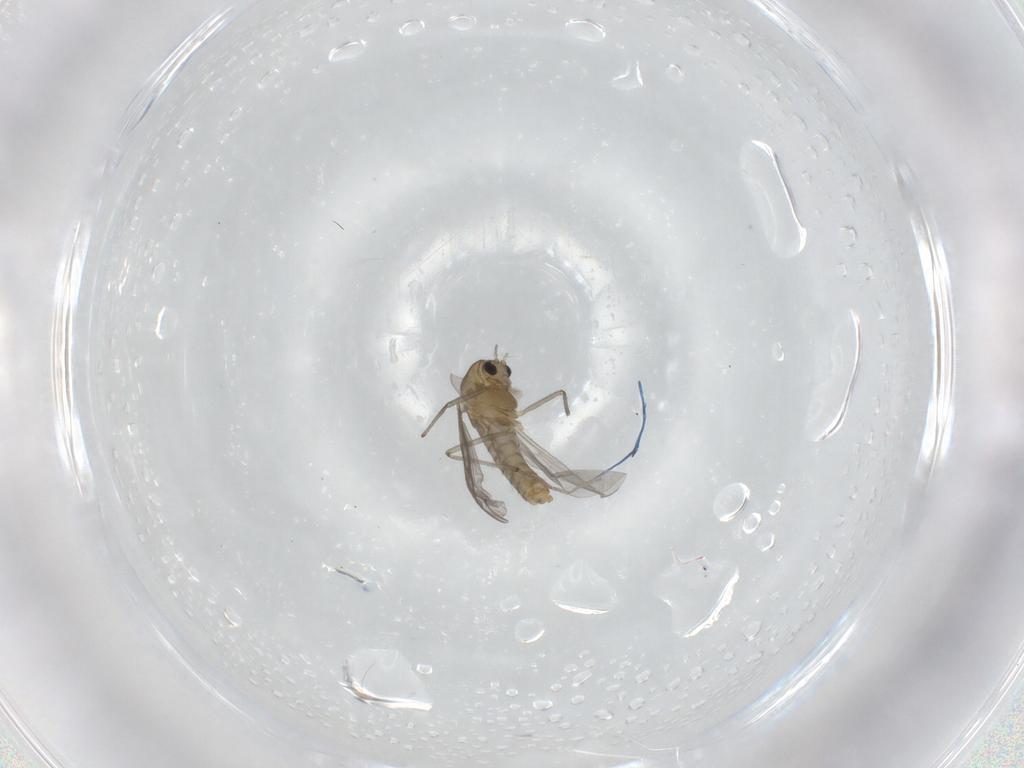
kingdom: Animalia
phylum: Arthropoda
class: Insecta
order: Diptera
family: Chironomidae
